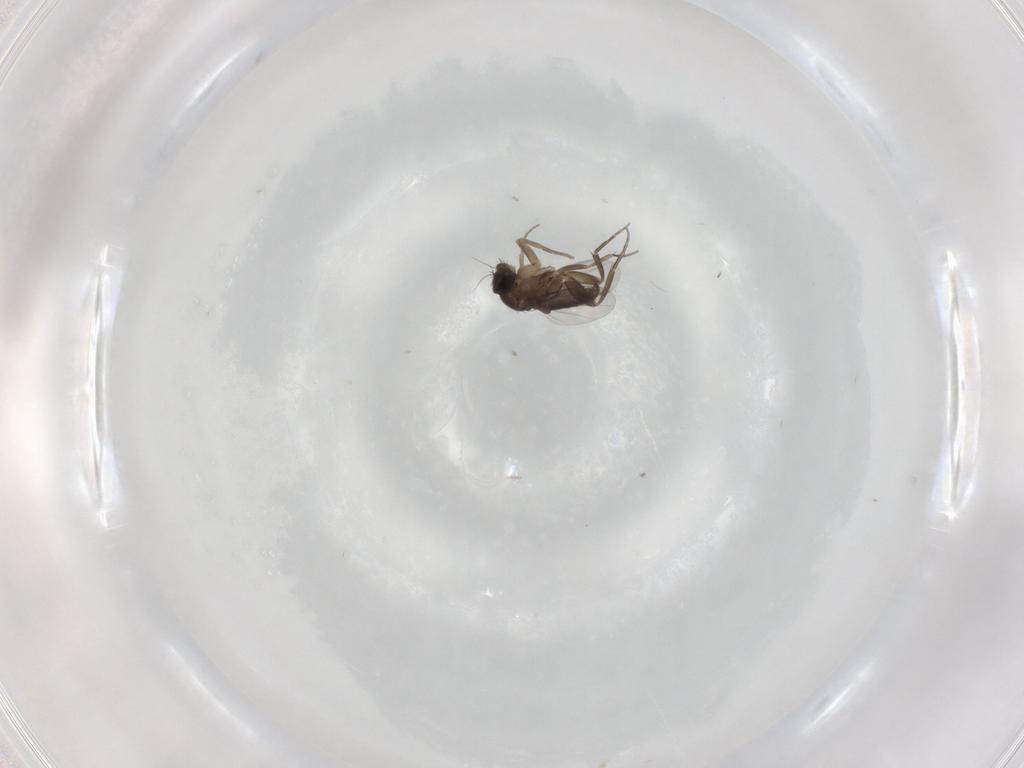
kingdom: Animalia
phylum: Arthropoda
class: Insecta
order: Diptera
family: Phoridae
